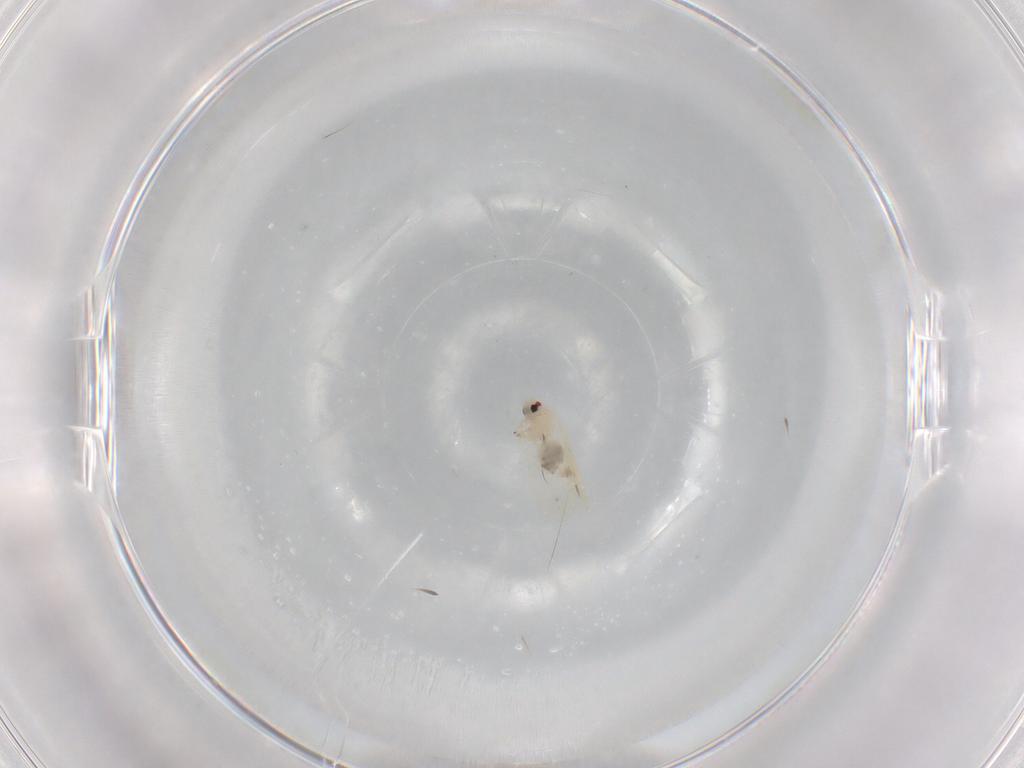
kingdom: Animalia
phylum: Arthropoda
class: Insecta
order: Hemiptera
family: Aleyrodidae
